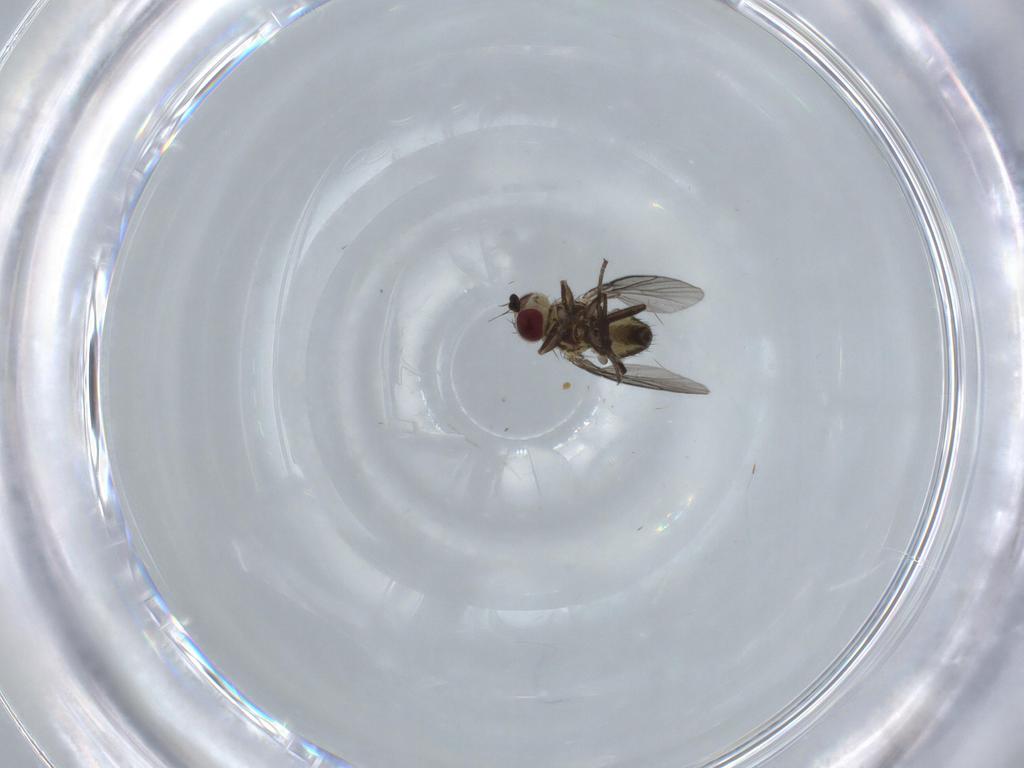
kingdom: Animalia
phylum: Arthropoda
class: Insecta
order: Diptera
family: Agromyzidae
